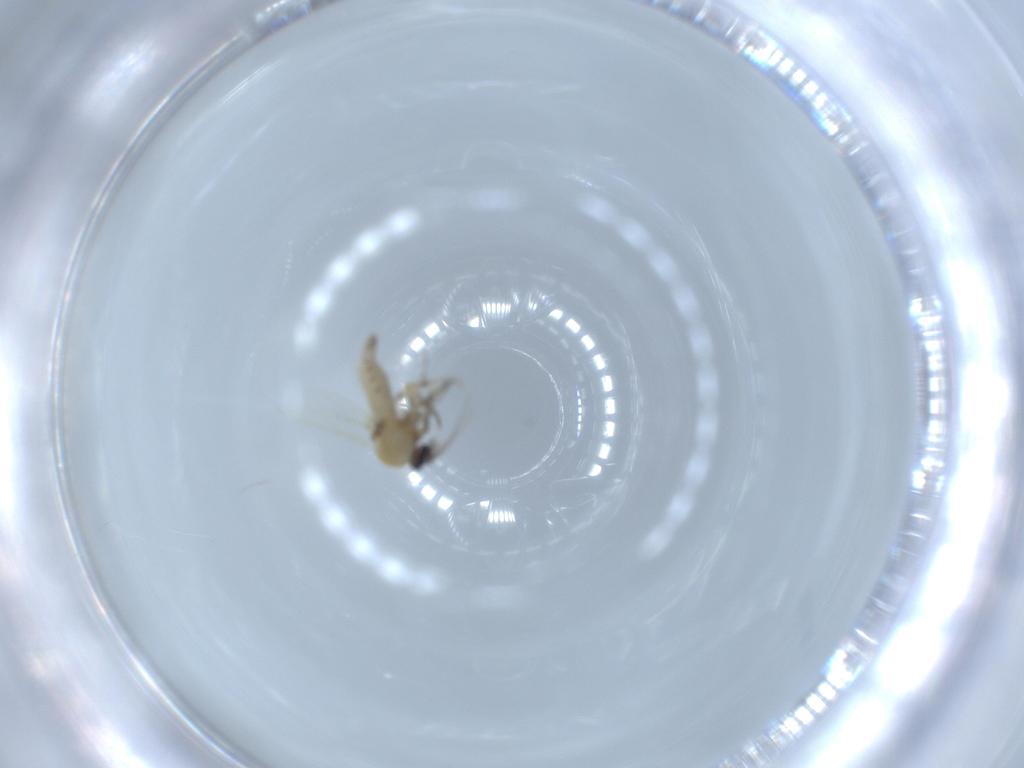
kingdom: Animalia
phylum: Arthropoda
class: Insecta
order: Diptera
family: Ceratopogonidae
